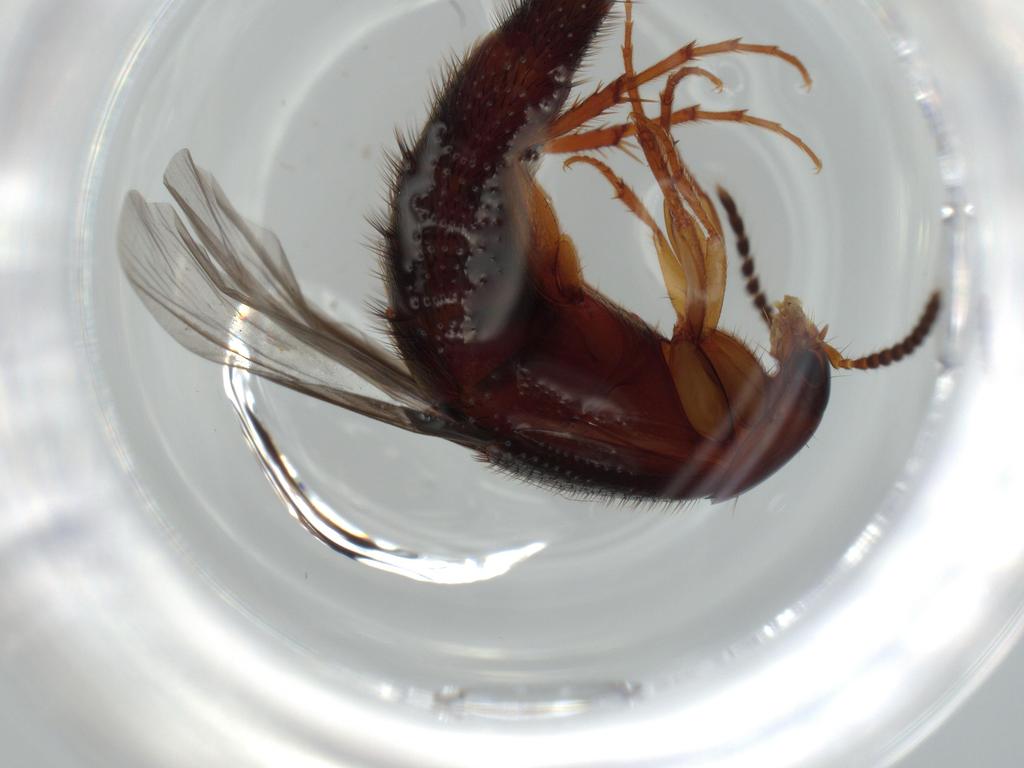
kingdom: Animalia
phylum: Arthropoda
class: Insecta
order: Coleoptera
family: Staphylinidae
